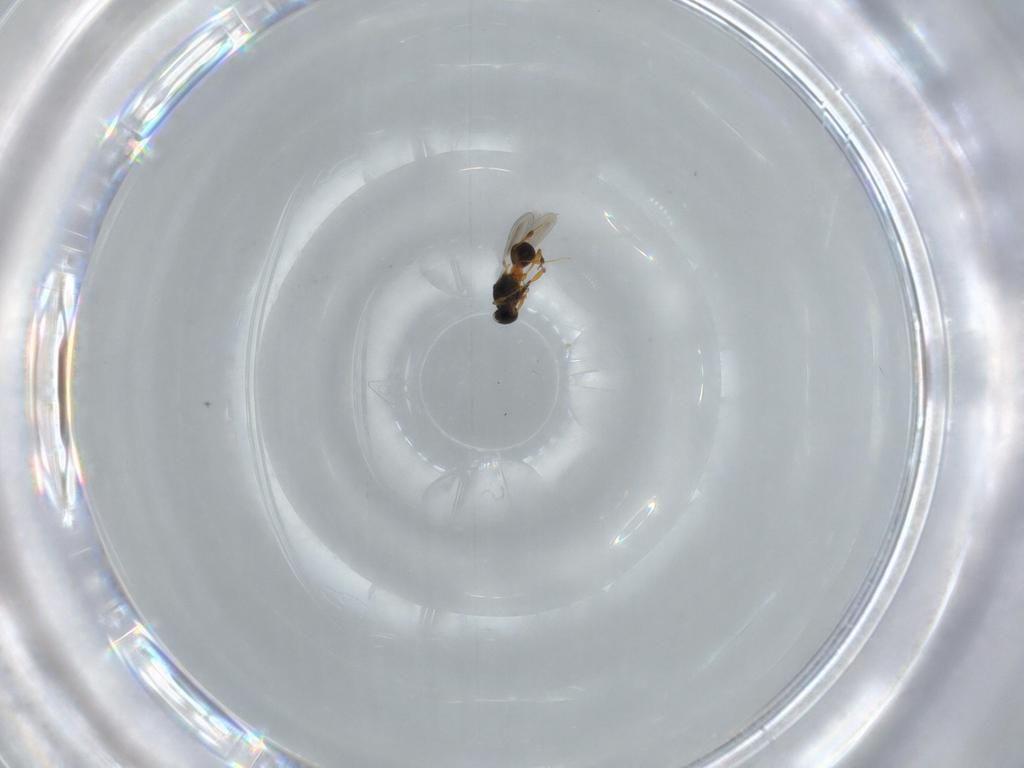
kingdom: Animalia
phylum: Arthropoda
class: Insecta
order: Hymenoptera
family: Platygastridae
